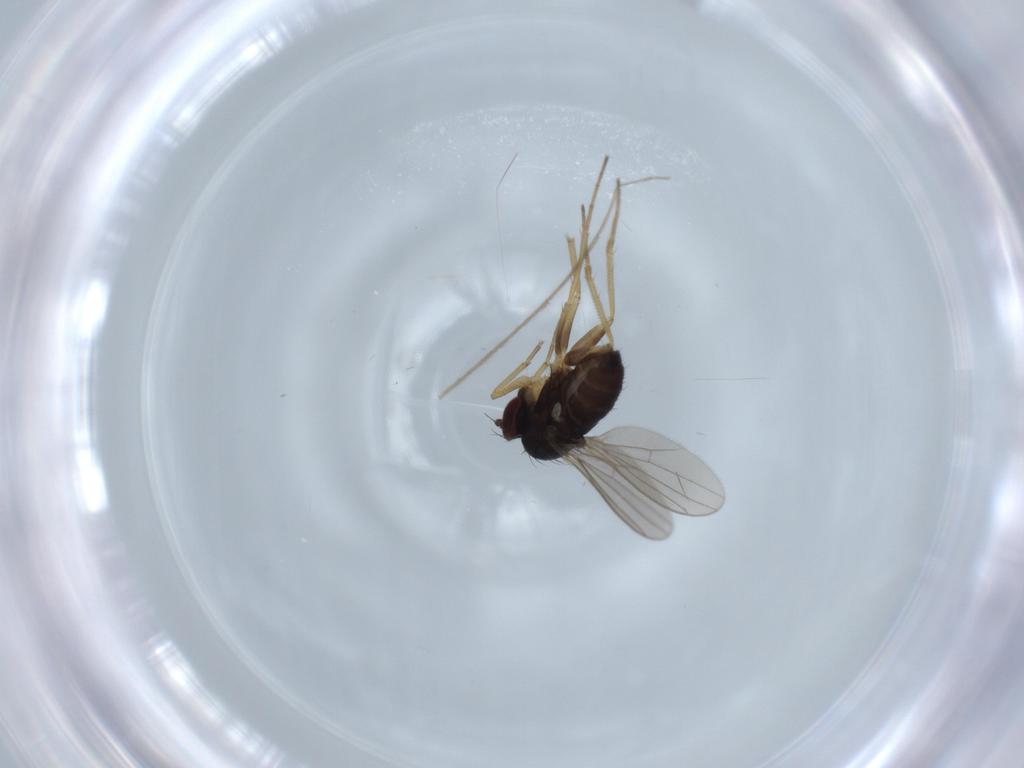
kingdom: Animalia
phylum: Arthropoda
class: Insecta
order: Diptera
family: Dolichopodidae
